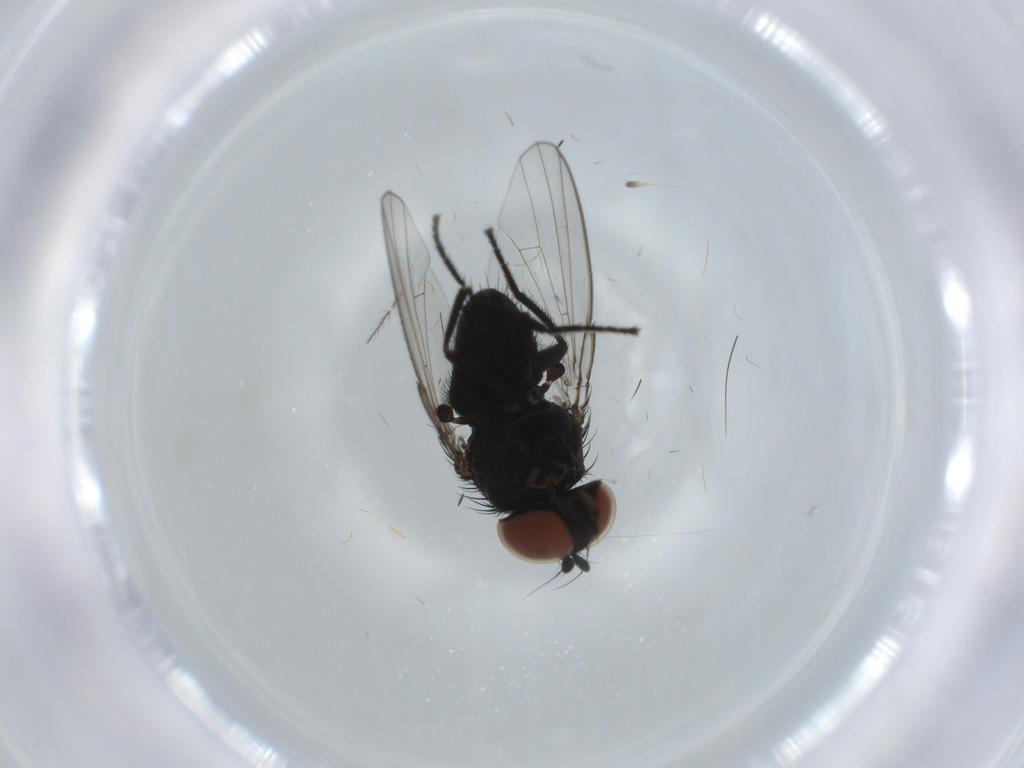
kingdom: Animalia
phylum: Arthropoda
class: Insecta
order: Diptera
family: Milichiidae
